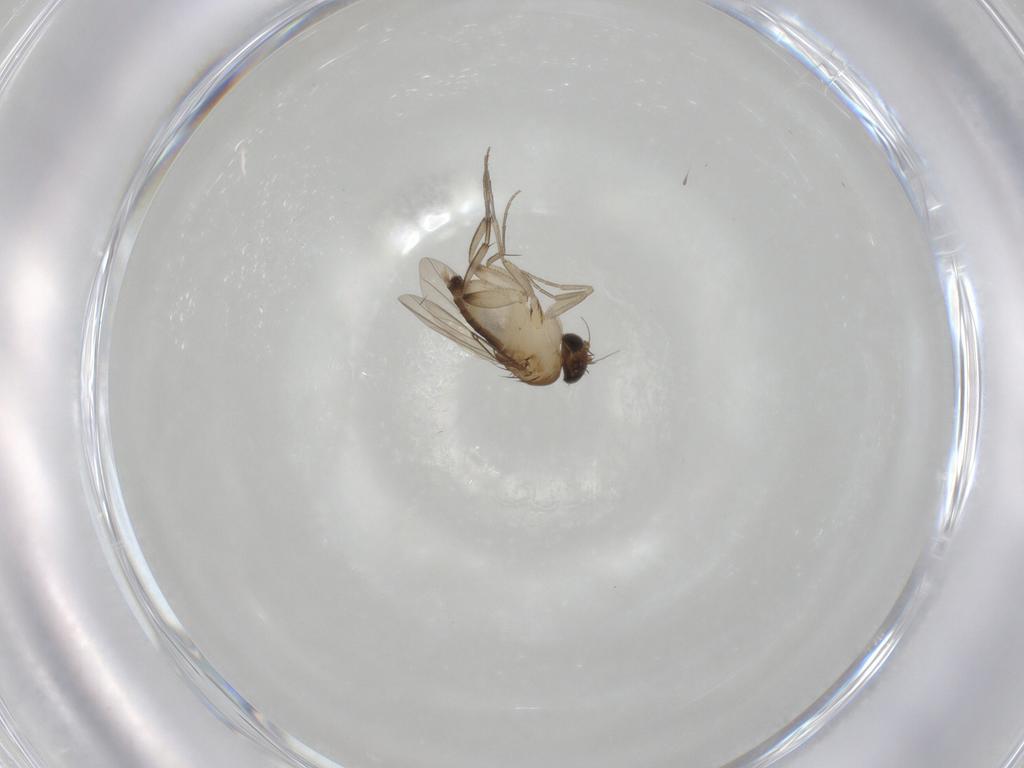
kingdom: Animalia
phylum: Arthropoda
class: Insecta
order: Diptera
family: Phoridae
